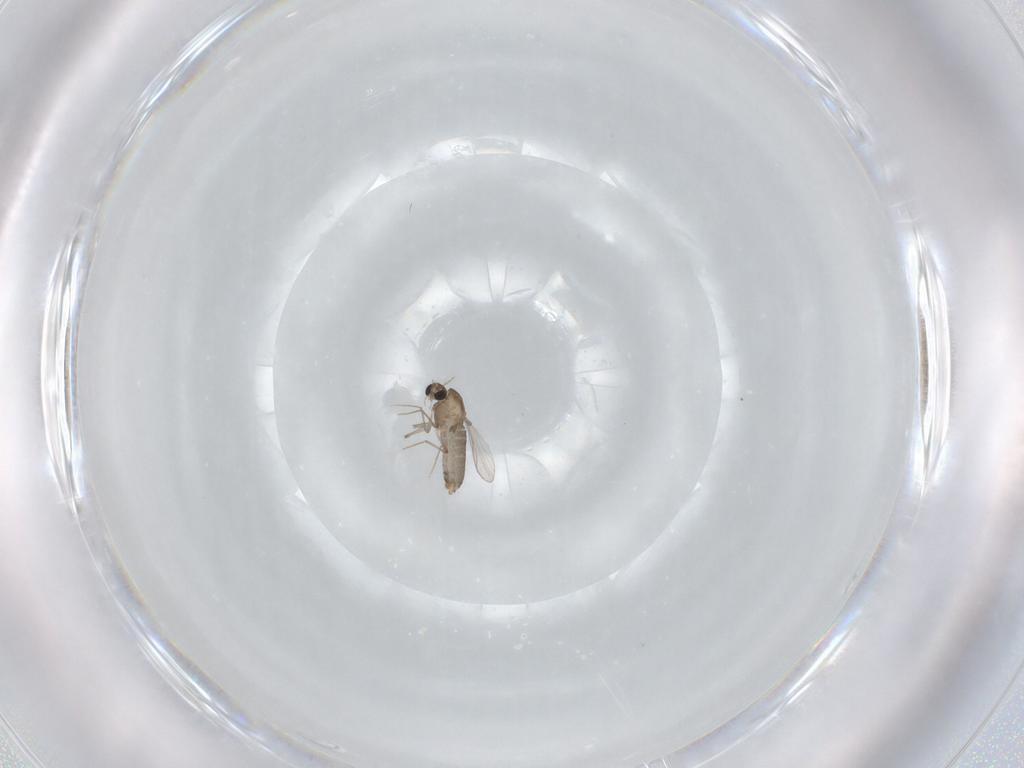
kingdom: Animalia
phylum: Arthropoda
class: Insecta
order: Diptera
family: Chironomidae
